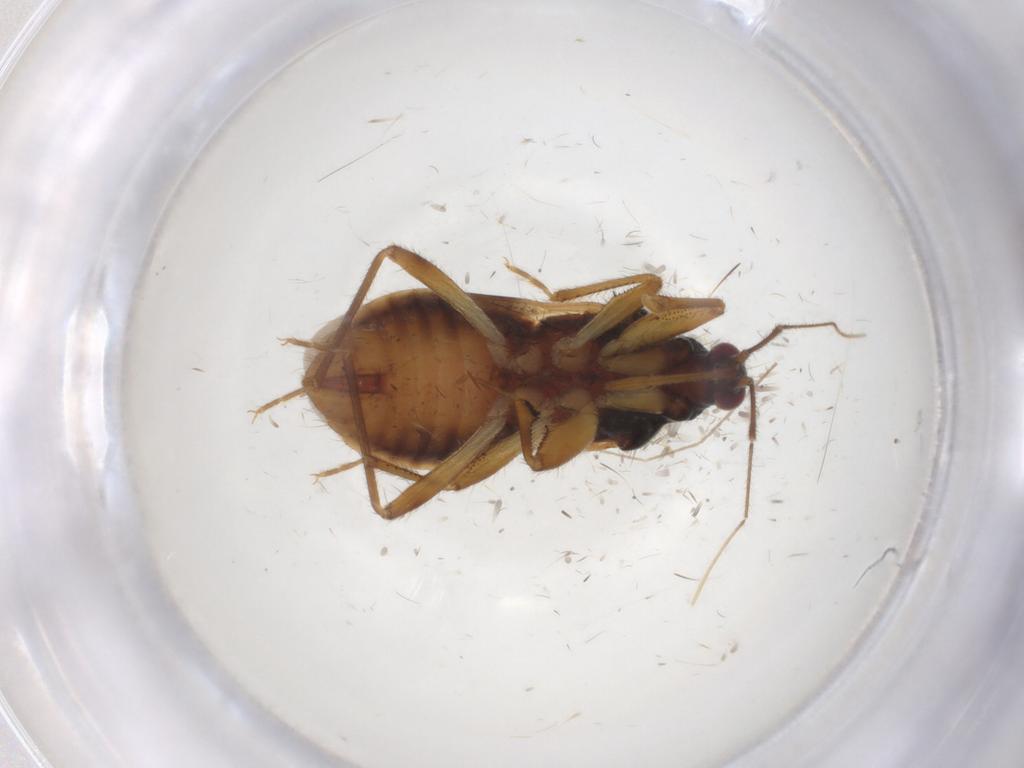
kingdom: Animalia
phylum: Arthropoda
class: Insecta
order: Hemiptera
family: Nabidae
